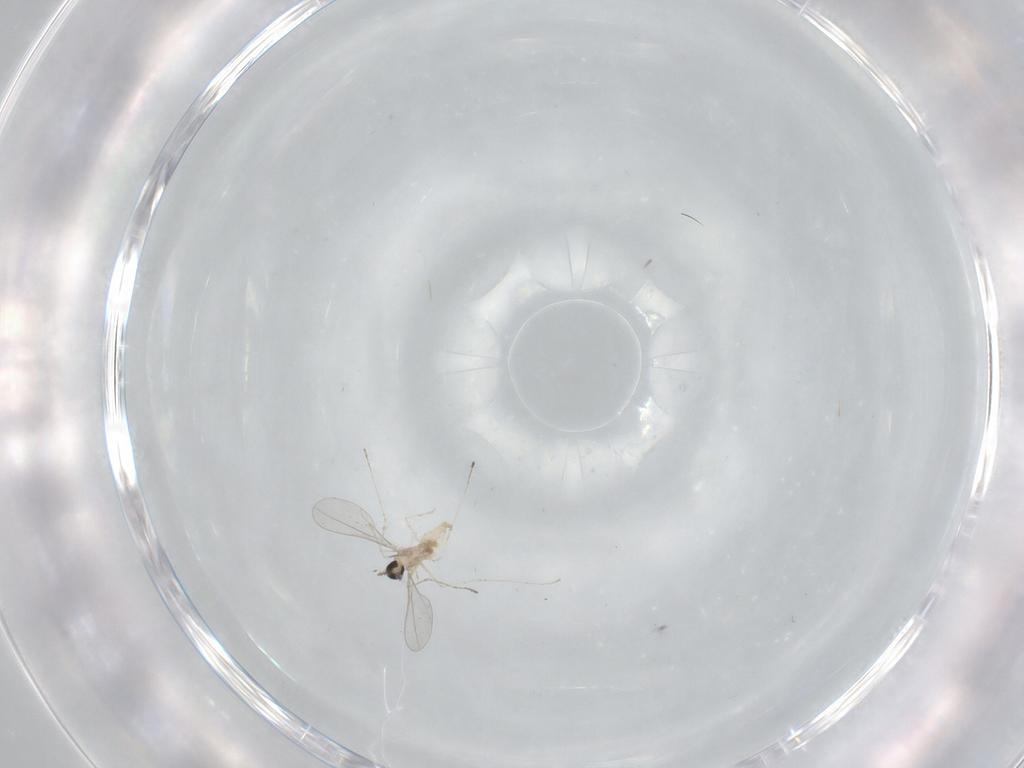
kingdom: Animalia
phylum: Arthropoda
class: Insecta
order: Diptera
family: Cecidomyiidae
